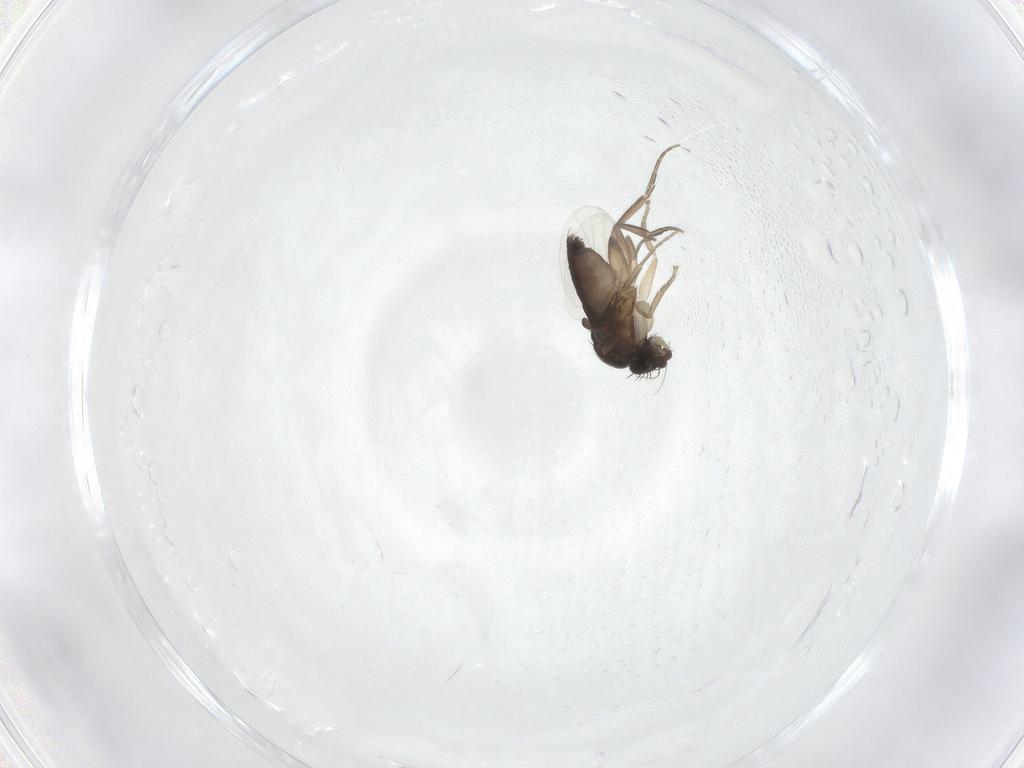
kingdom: Animalia
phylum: Arthropoda
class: Insecta
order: Diptera
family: Phoridae
